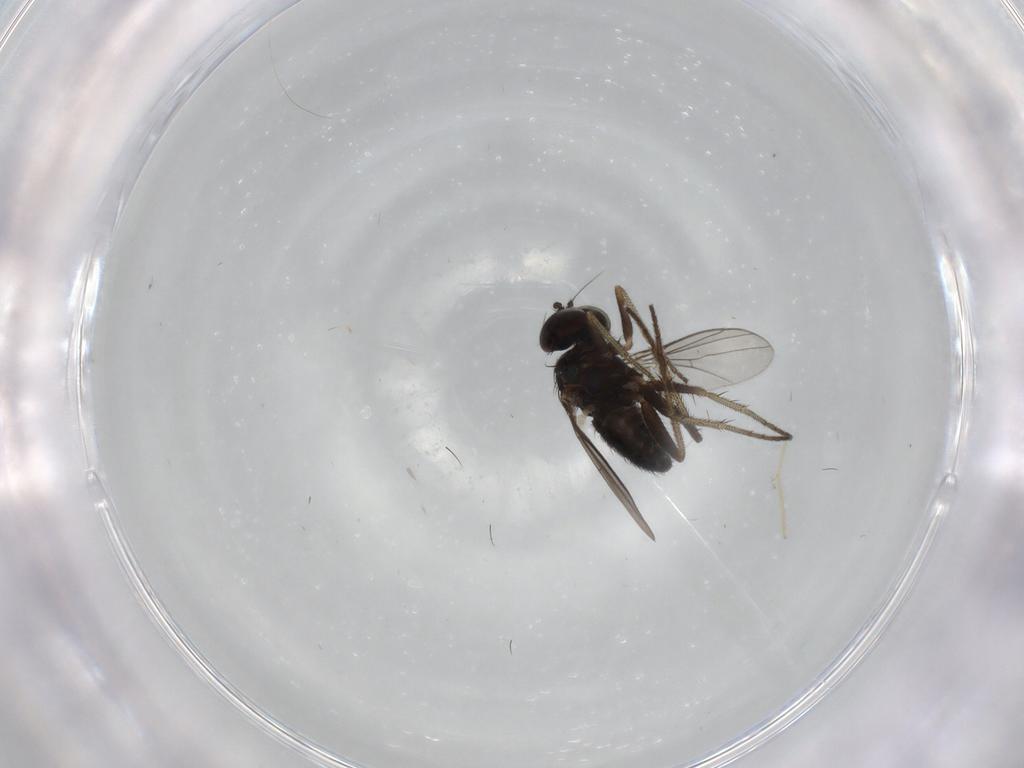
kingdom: Animalia
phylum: Arthropoda
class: Insecta
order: Diptera
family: Dolichopodidae
